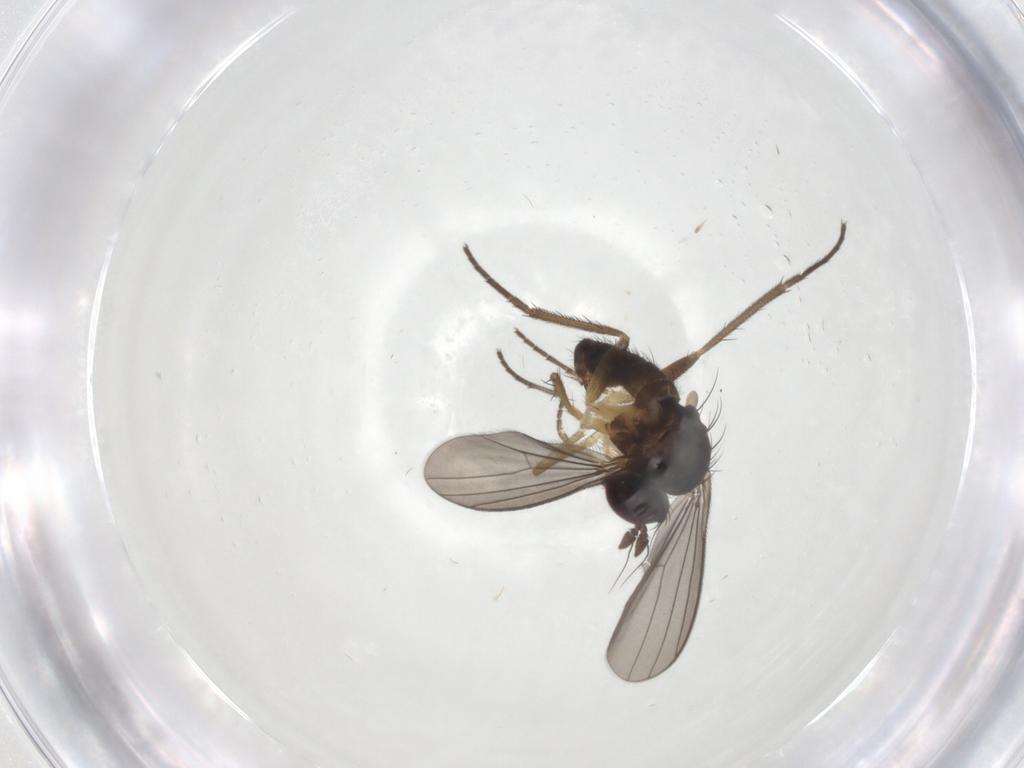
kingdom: Animalia
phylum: Arthropoda
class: Insecta
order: Diptera
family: Dolichopodidae
